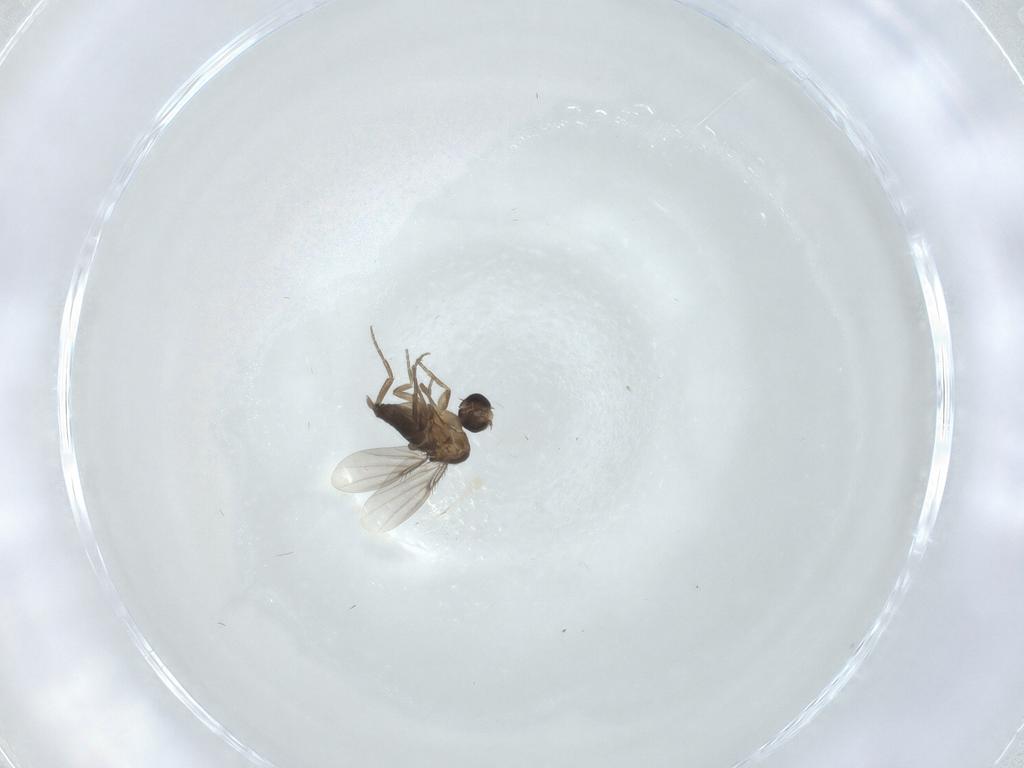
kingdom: Animalia
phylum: Arthropoda
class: Insecta
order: Diptera
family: Phoridae
